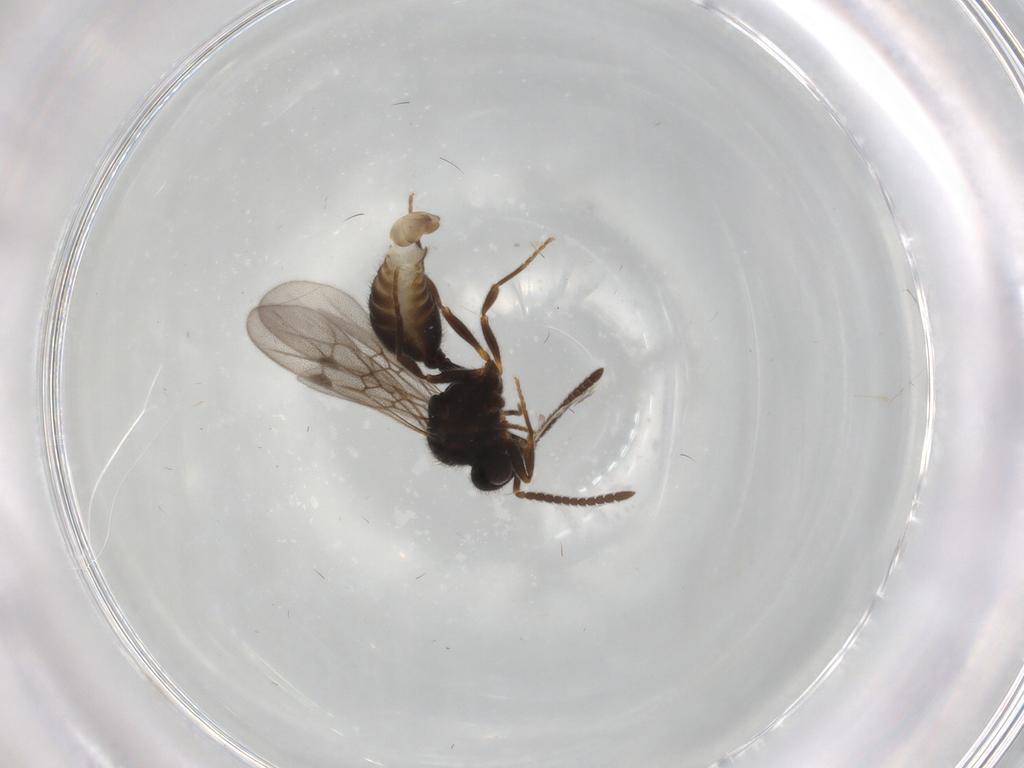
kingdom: Animalia
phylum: Arthropoda
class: Insecta
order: Hymenoptera
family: Formicidae
